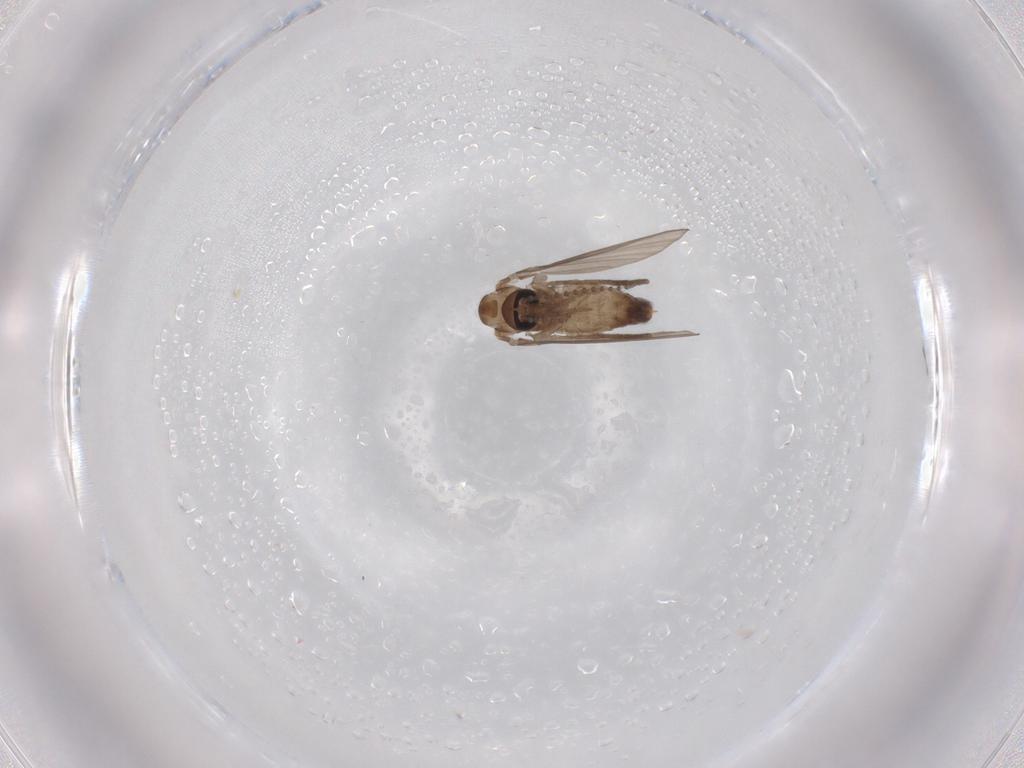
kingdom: Animalia
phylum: Arthropoda
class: Insecta
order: Diptera
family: Psychodidae
